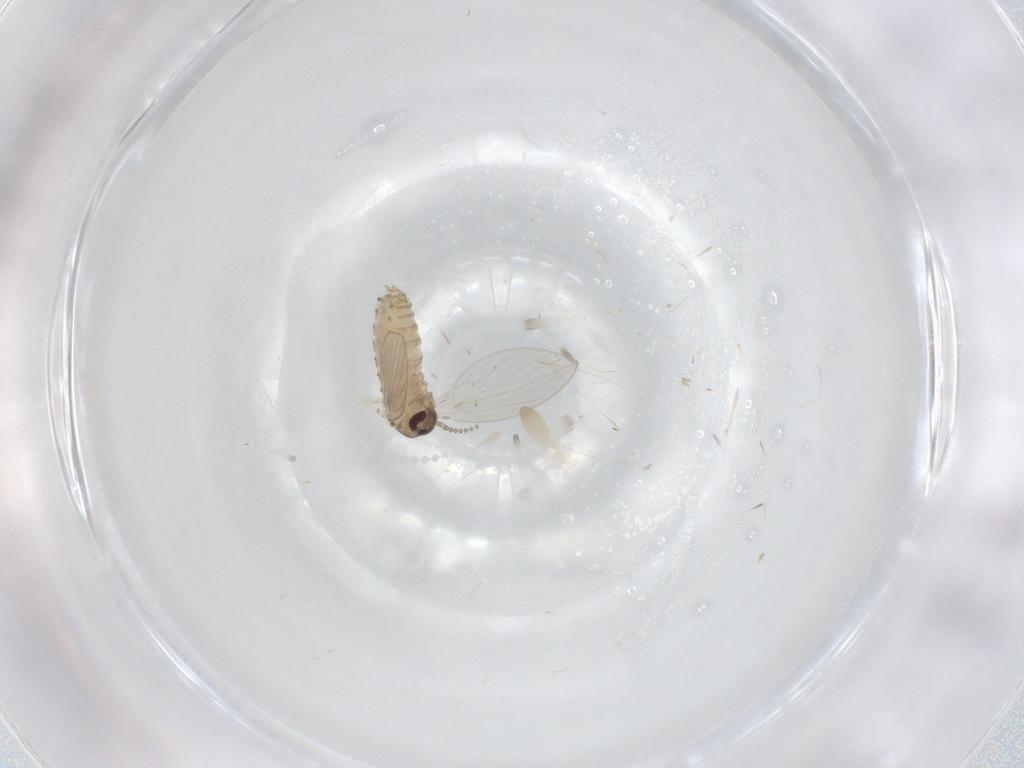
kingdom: Animalia
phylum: Arthropoda
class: Insecta
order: Diptera
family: Psychodidae
